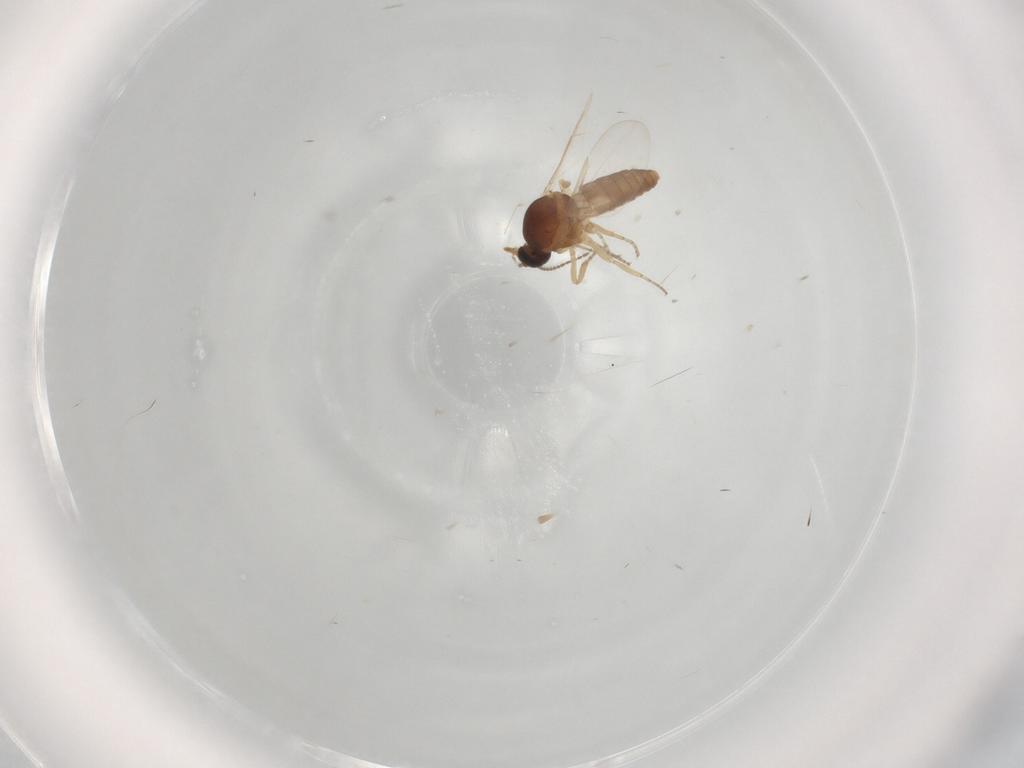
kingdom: Animalia
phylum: Arthropoda
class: Insecta
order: Diptera
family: Ceratopogonidae
